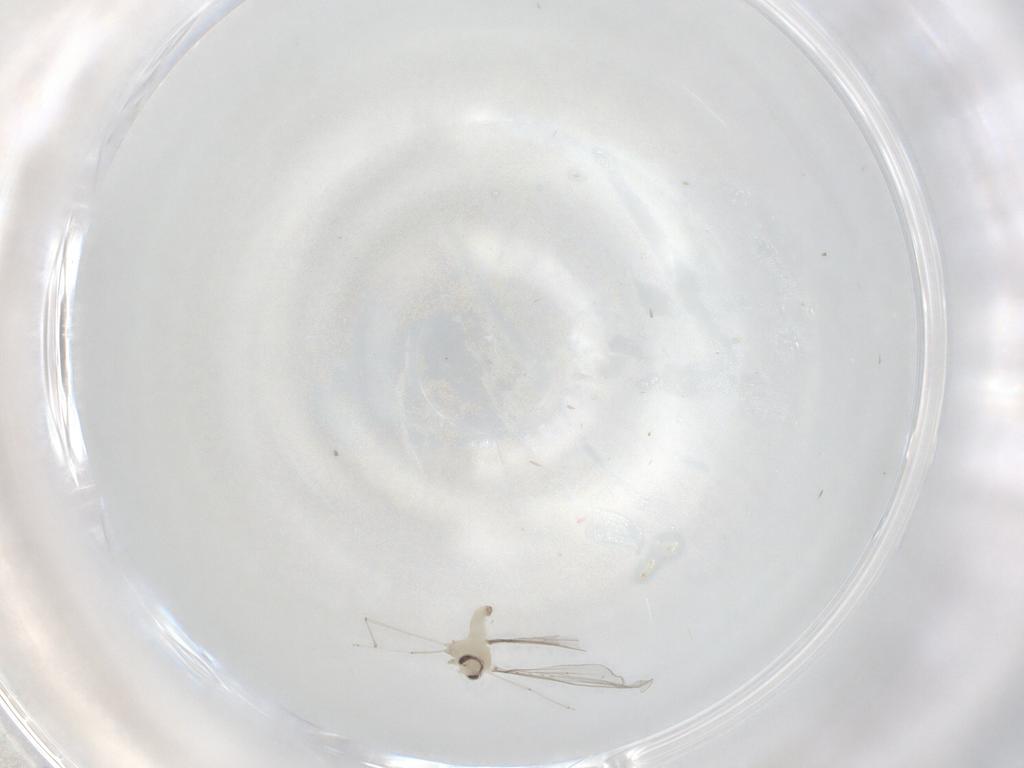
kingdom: Animalia
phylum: Arthropoda
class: Insecta
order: Diptera
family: Cecidomyiidae
